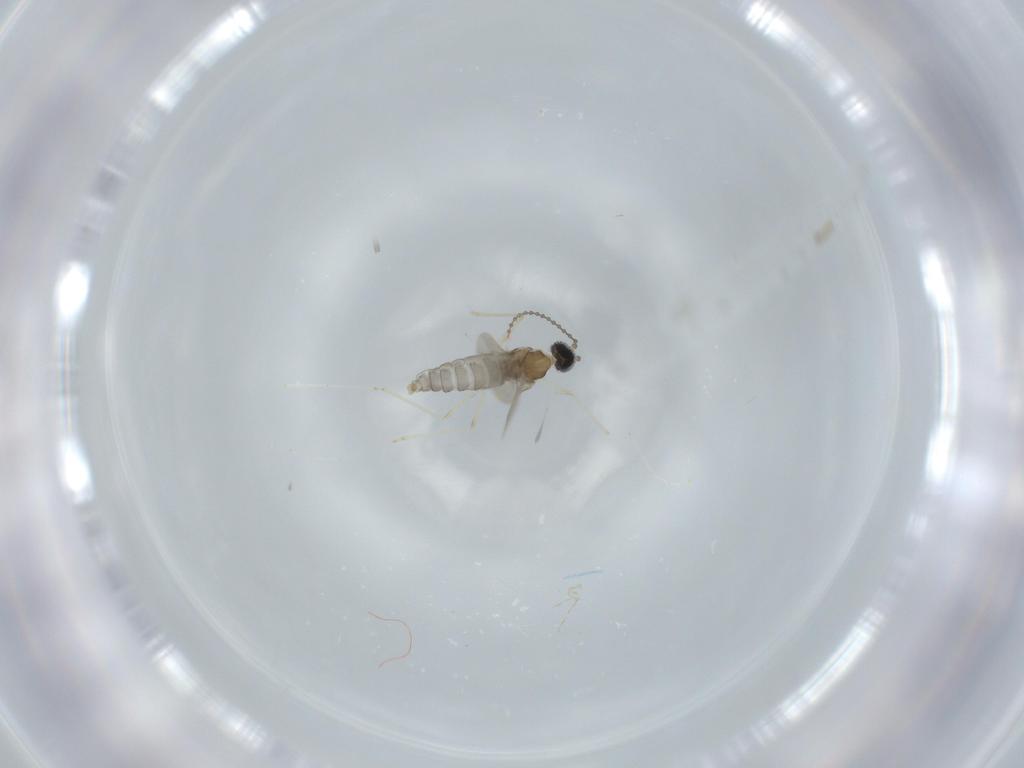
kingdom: Animalia
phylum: Arthropoda
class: Insecta
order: Diptera
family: Cecidomyiidae
